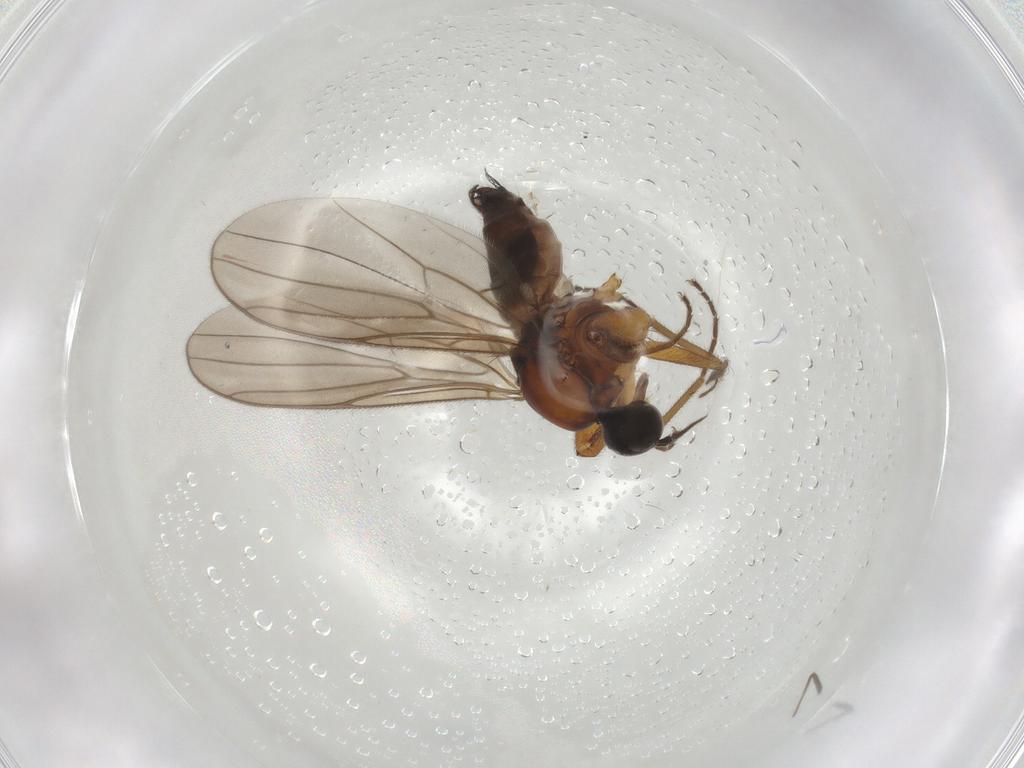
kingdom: Animalia
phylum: Arthropoda
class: Insecta
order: Diptera
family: Hybotidae
